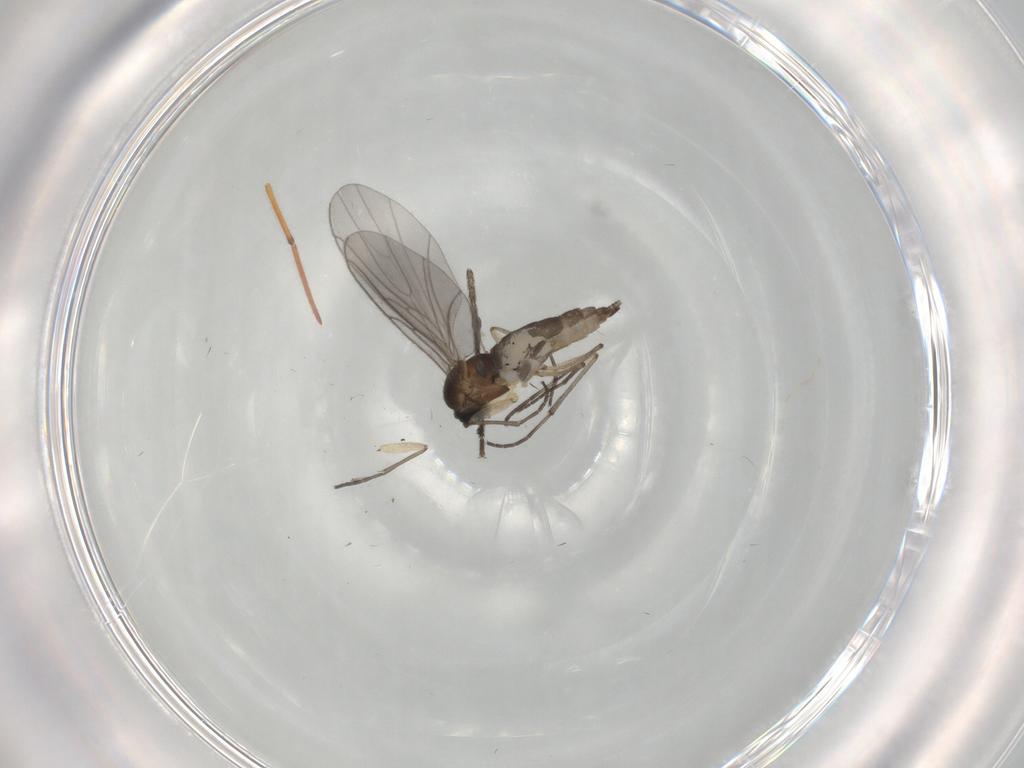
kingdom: Animalia
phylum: Arthropoda
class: Insecta
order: Diptera
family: Sciaridae
